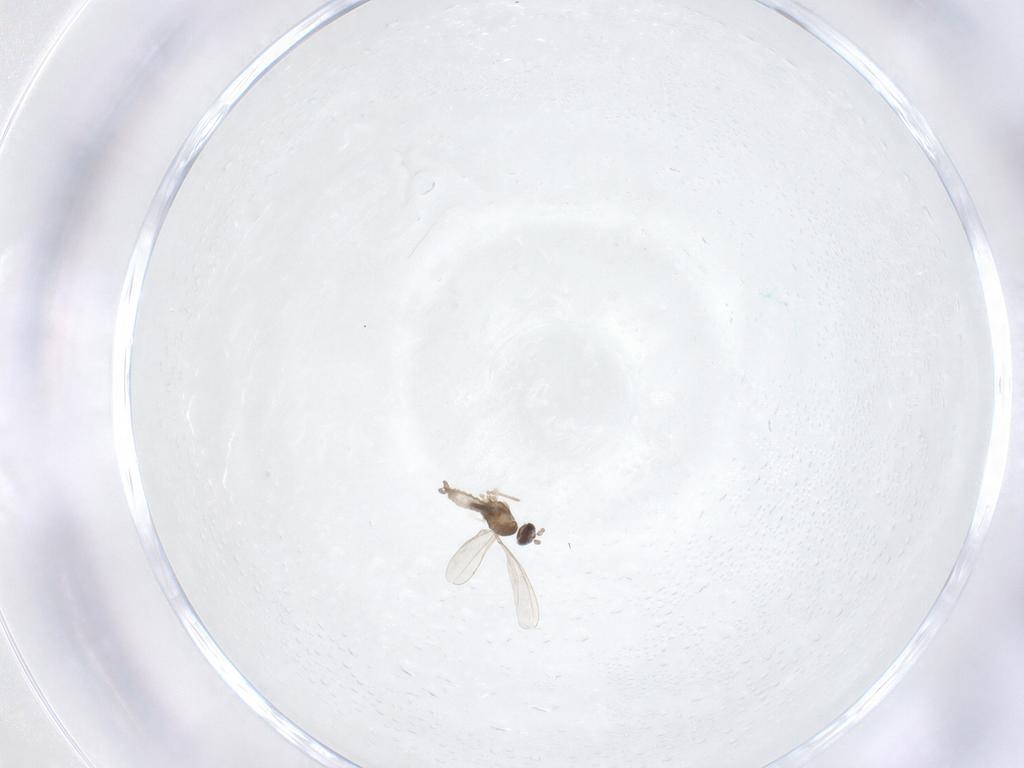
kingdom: Animalia
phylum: Arthropoda
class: Insecta
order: Diptera
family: Cecidomyiidae
